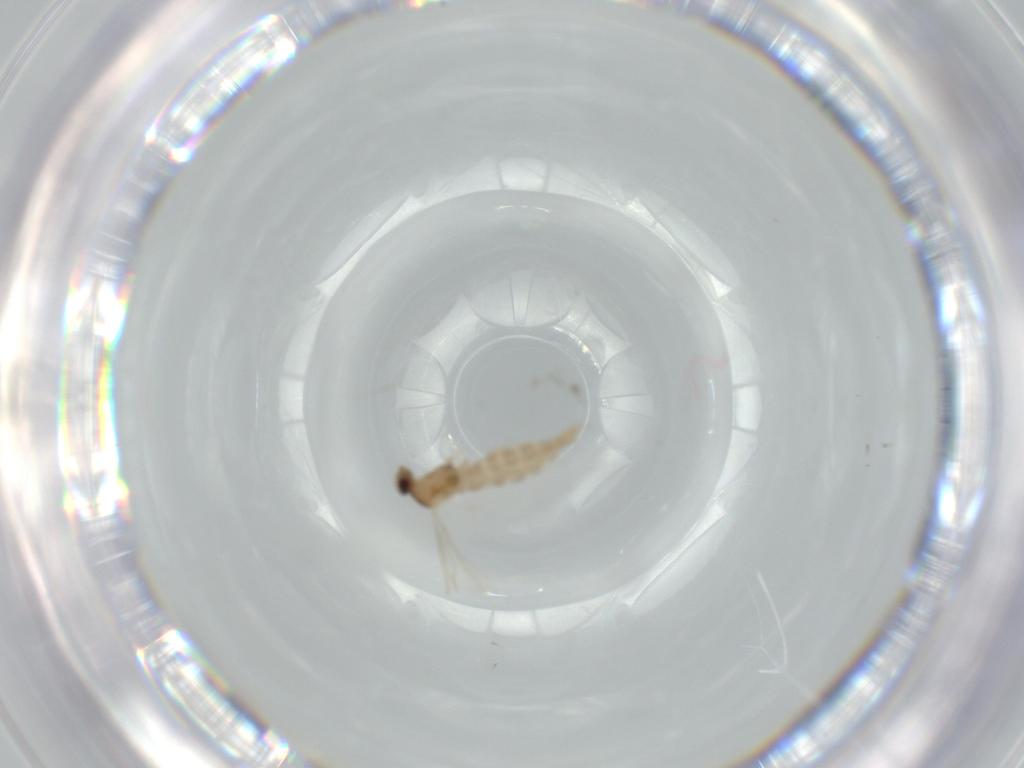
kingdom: Animalia
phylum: Arthropoda
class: Insecta
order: Diptera
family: Cecidomyiidae
